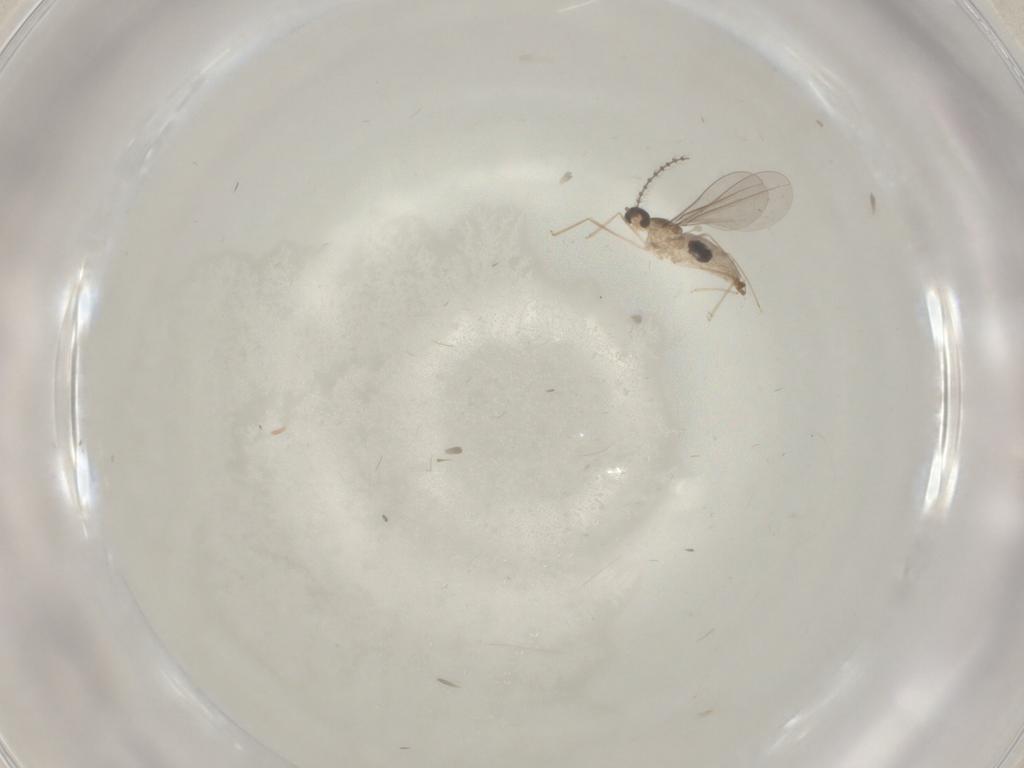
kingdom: Animalia
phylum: Arthropoda
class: Insecta
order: Diptera
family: Cecidomyiidae
